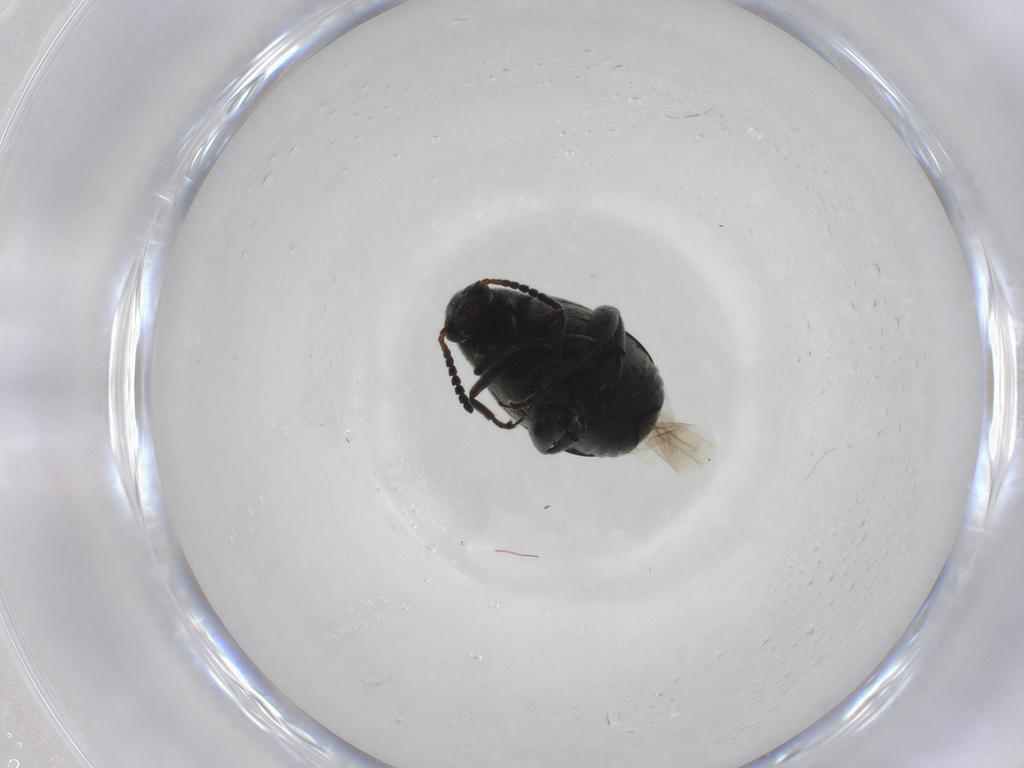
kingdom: Animalia
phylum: Arthropoda
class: Insecta
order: Coleoptera
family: Chrysomelidae
